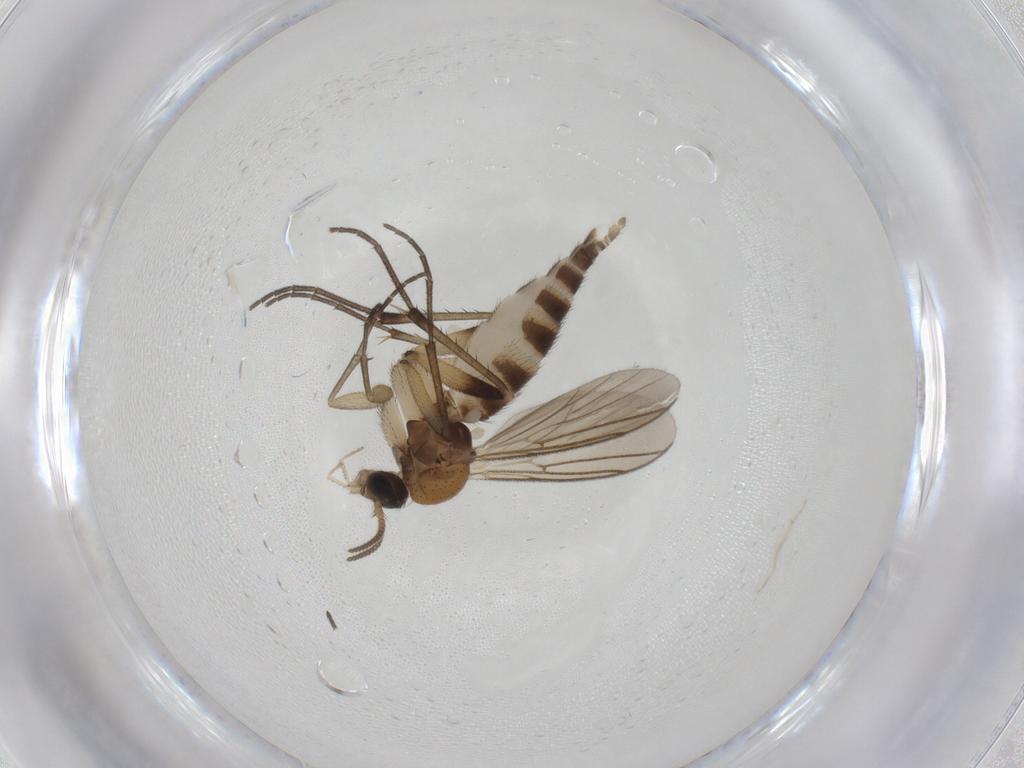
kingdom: Animalia
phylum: Arthropoda
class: Insecta
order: Diptera
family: Mycetophilidae
